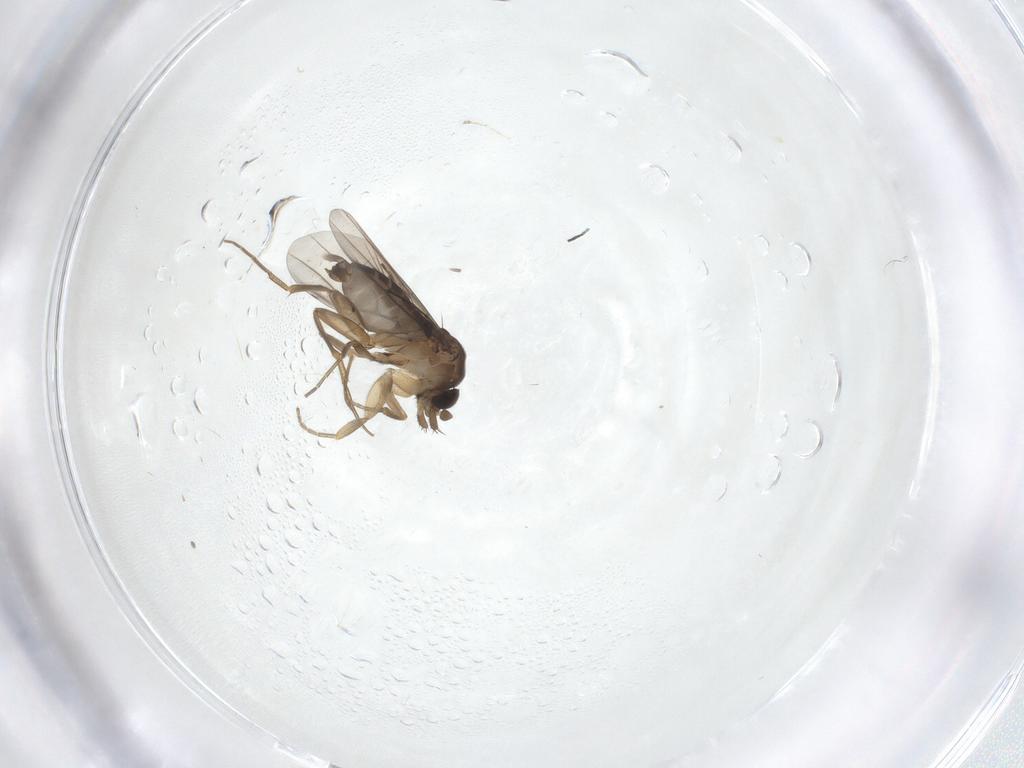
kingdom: Animalia
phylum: Arthropoda
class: Insecta
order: Diptera
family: Phoridae
